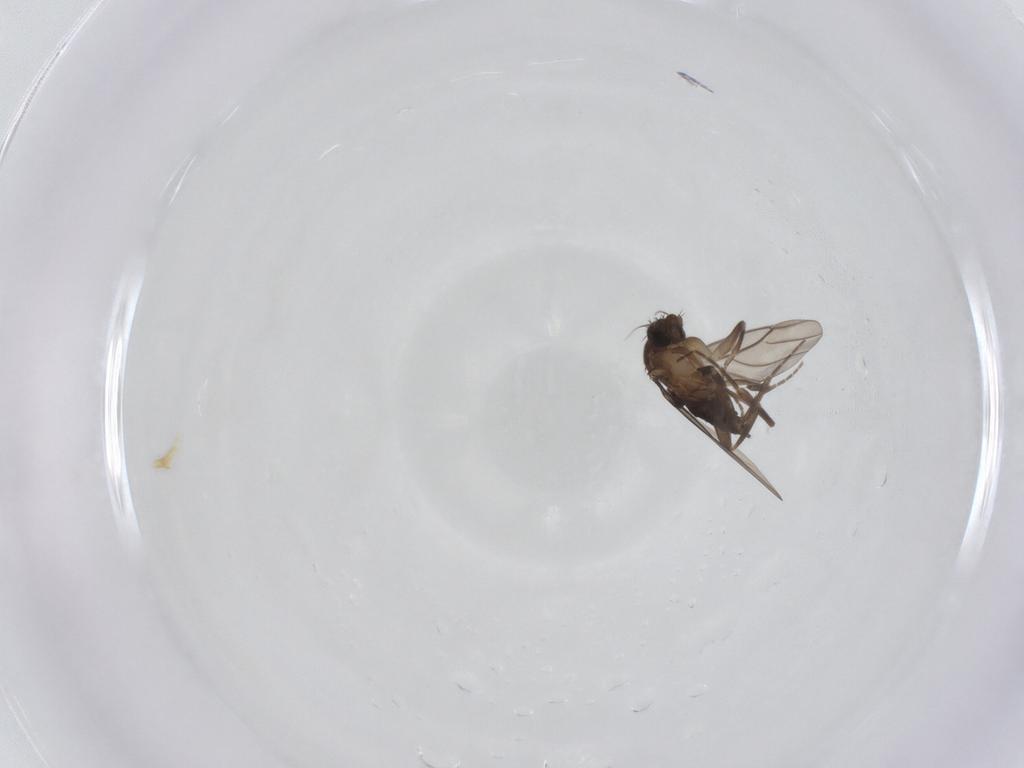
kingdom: Animalia
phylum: Arthropoda
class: Insecta
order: Diptera
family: Phoridae
